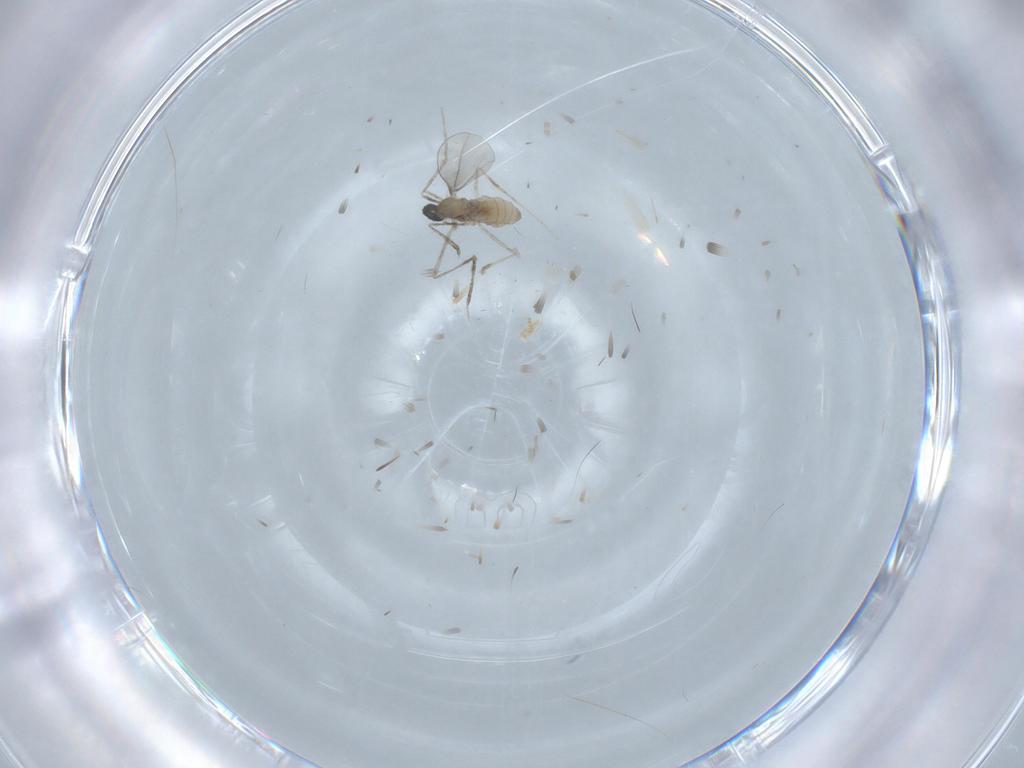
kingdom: Animalia
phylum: Arthropoda
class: Insecta
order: Diptera
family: Cecidomyiidae
